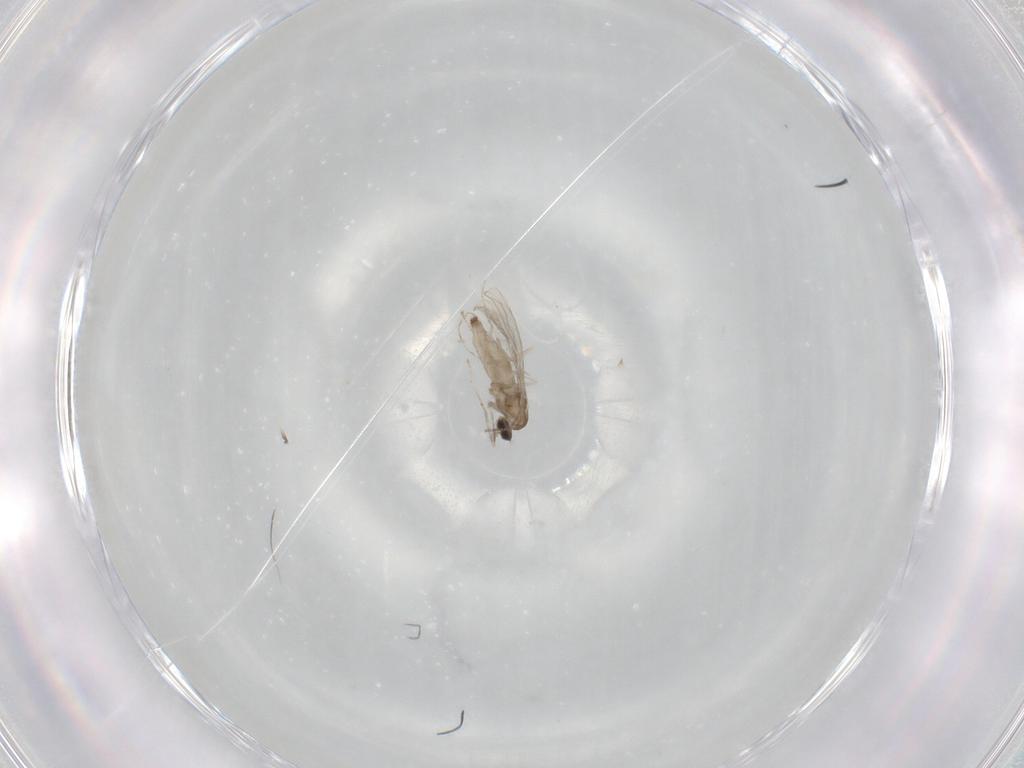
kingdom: Animalia
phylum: Arthropoda
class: Insecta
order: Diptera
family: Cecidomyiidae
